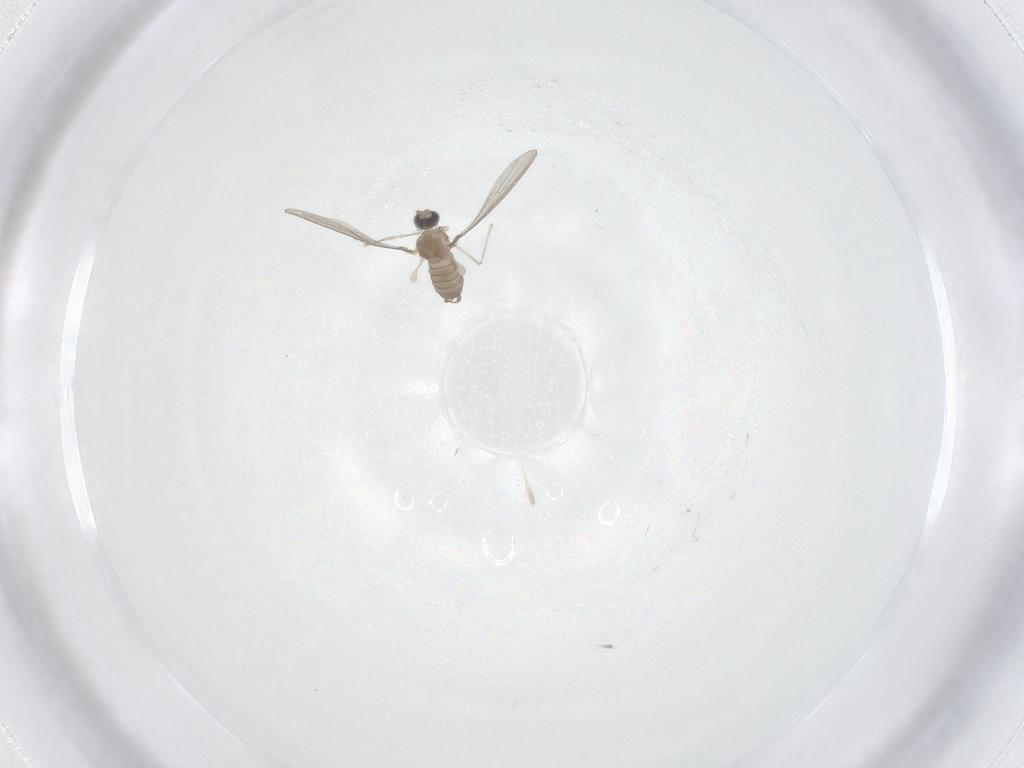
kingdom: Animalia
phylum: Arthropoda
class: Insecta
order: Diptera
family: Cecidomyiidae
